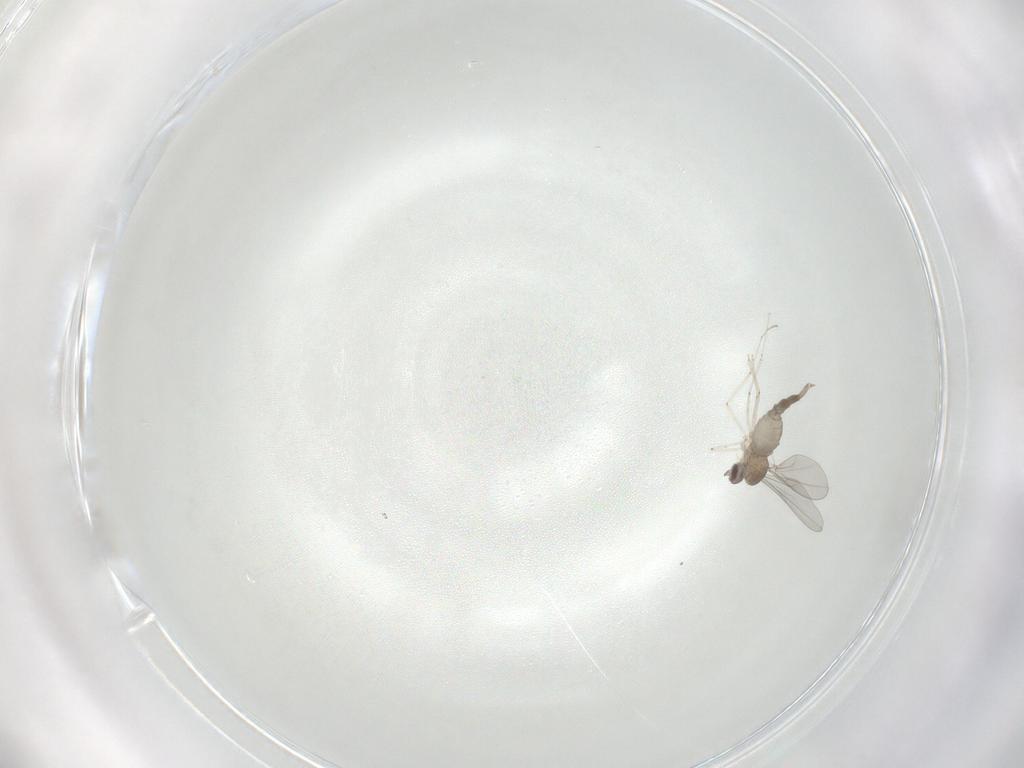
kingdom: Animalia
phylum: Arthropoda
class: Insecta
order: Diptera
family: Cecidomyiidae
